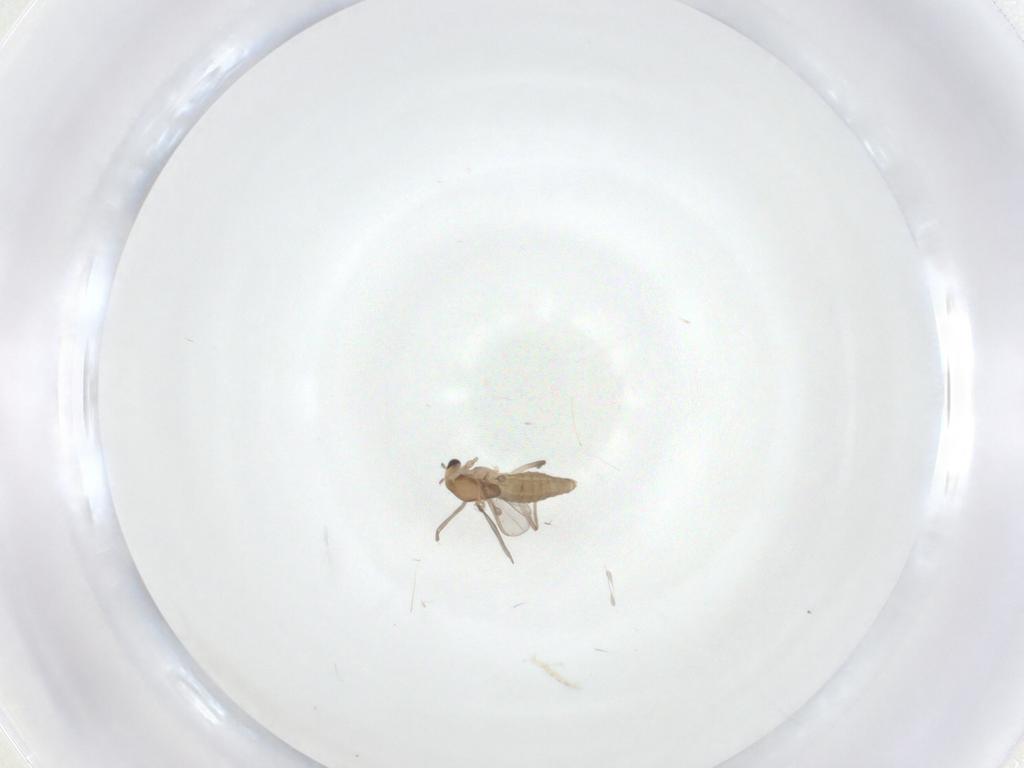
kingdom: Animalia
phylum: Arthropoda
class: Insecta
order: Diptera
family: Chironomidae
